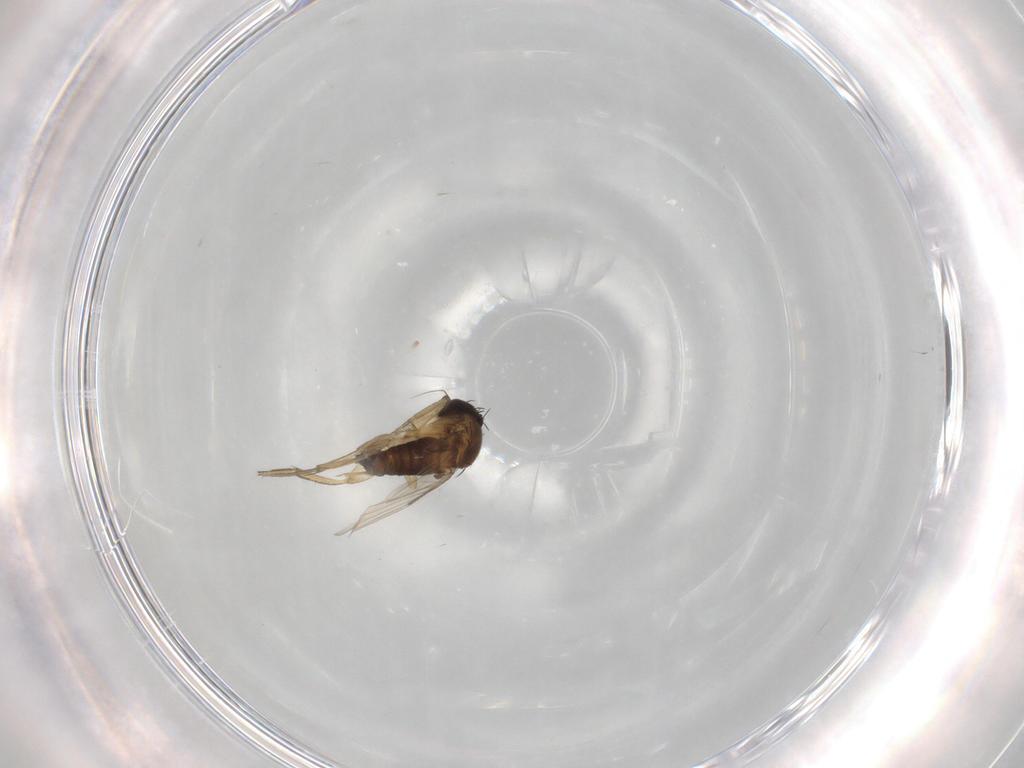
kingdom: Animalia
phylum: Arthropoda
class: Insecta
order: Diptera
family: Phoridae
